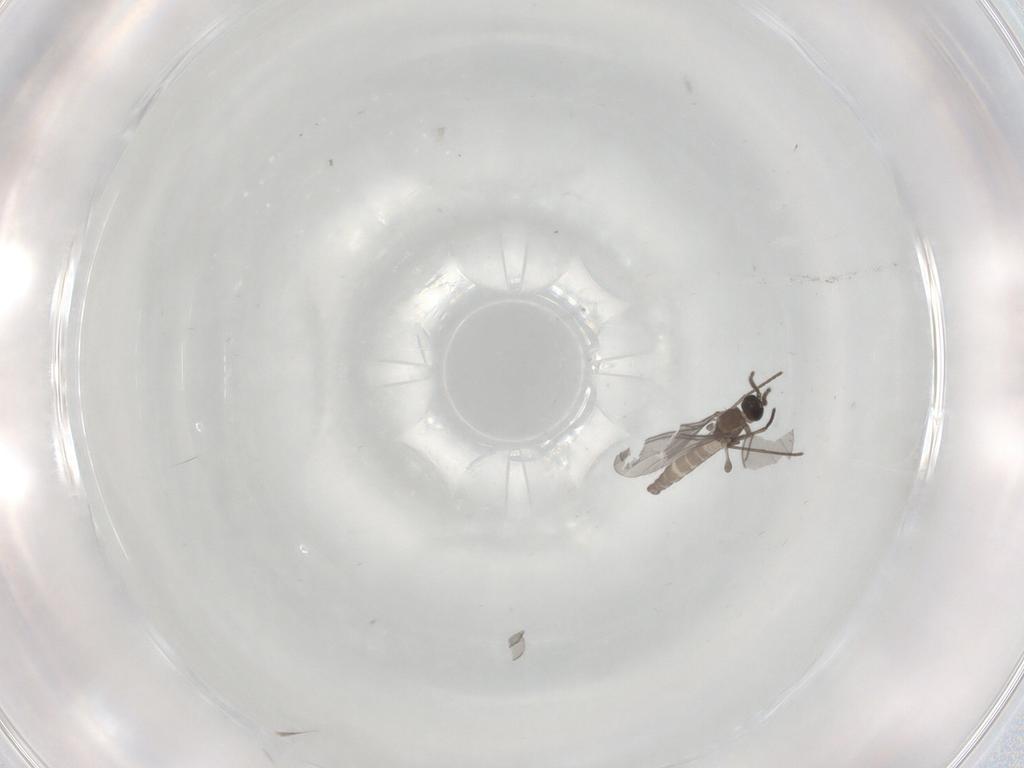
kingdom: Animalia
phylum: Arthropoda
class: Insecta
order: Diptera
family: Sciaridae
